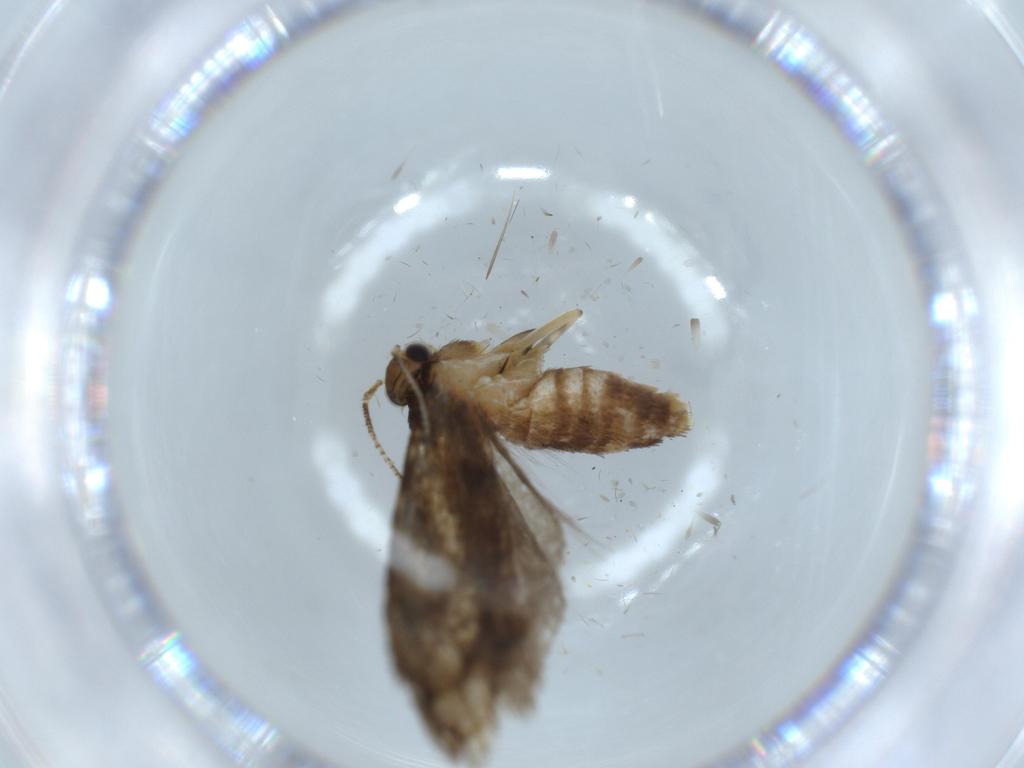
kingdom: Animalia
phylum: Arthropoda
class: Insecta
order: Lepidoptera
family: Tineidae
